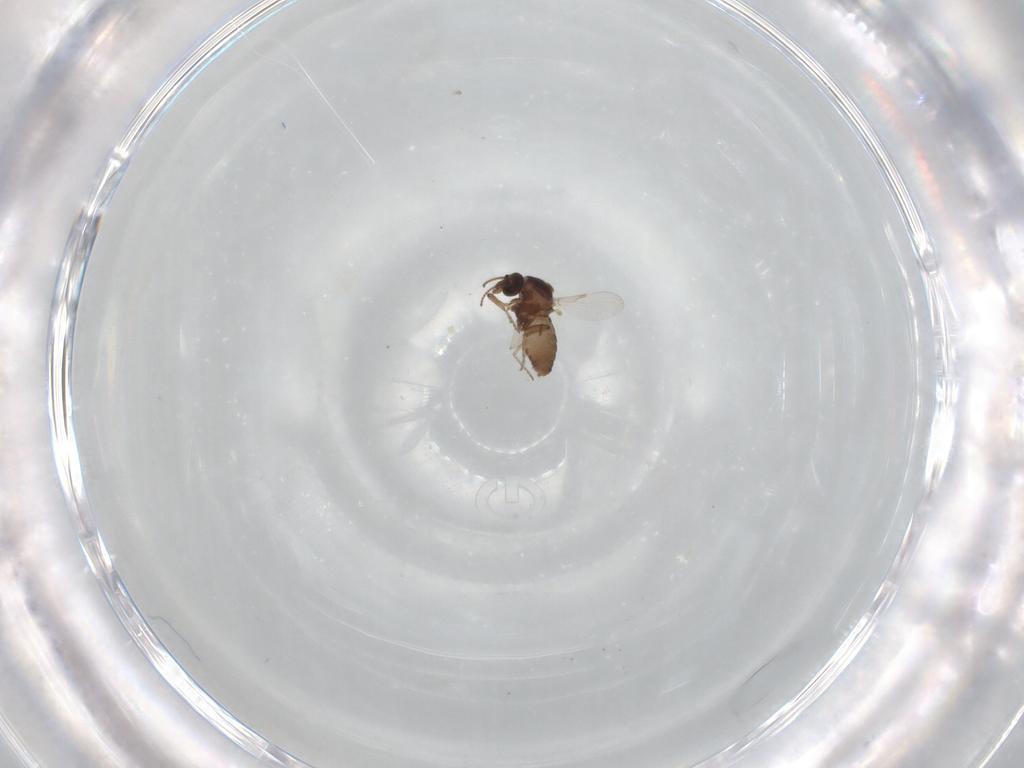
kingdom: Animalia
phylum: Arthropoda
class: Insecta
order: Diptera
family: Ceratopogonidae
